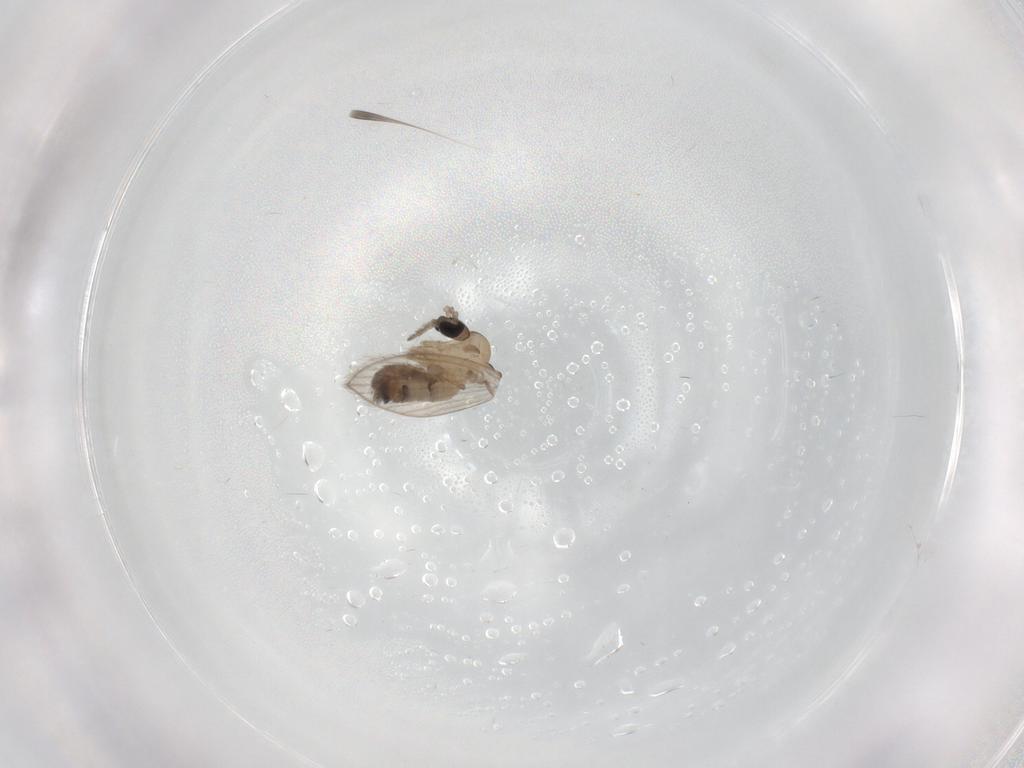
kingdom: Animalia
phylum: Arthropoda
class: Insecta
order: Diptera
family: Psychodidae
